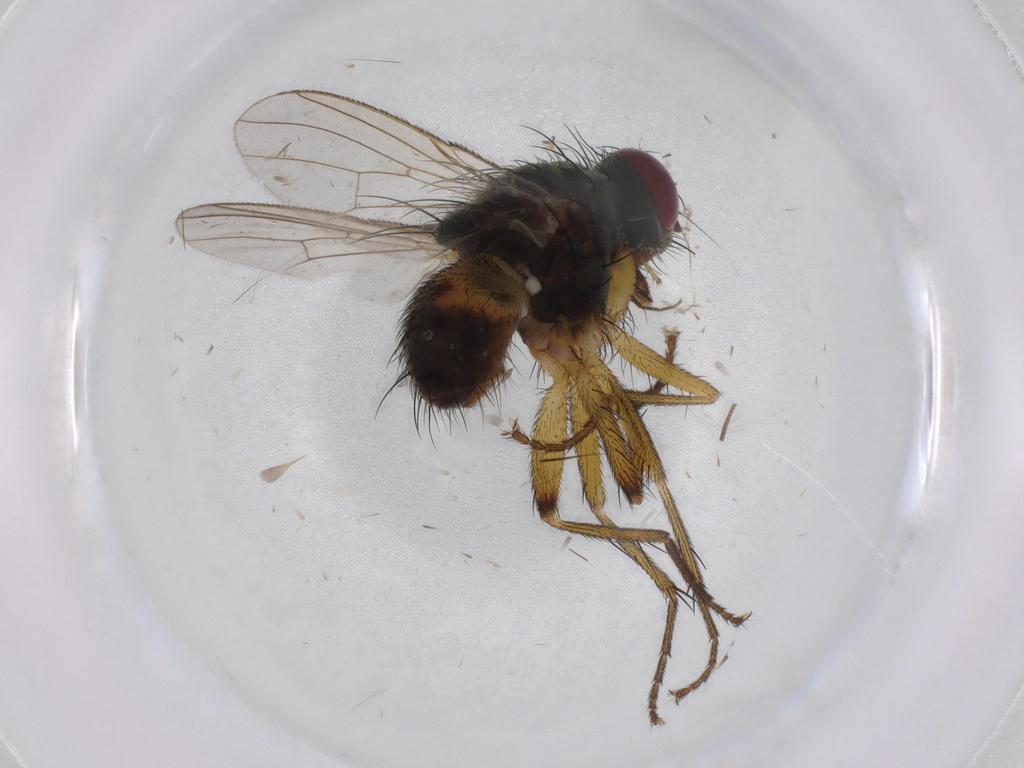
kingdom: Animalia
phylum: Arthropoda
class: Insecta
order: Diptera
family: Muscidae
